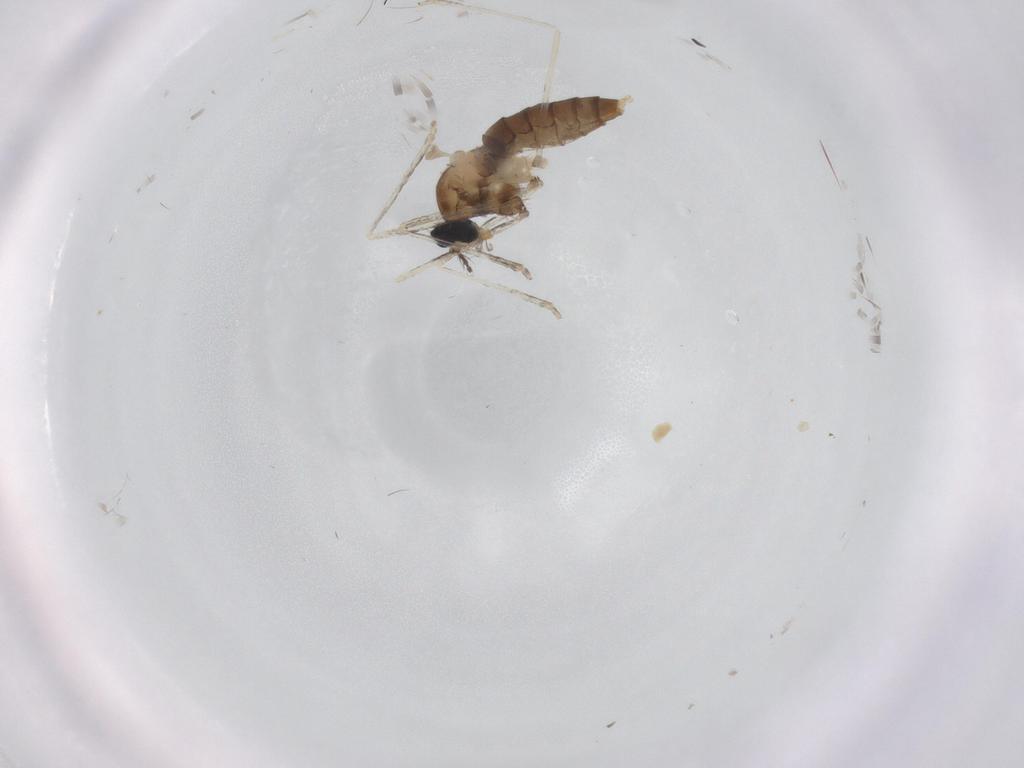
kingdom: Animalia
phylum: Arthropoda
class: Insecta
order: Diptera
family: Cecidomyiidae
